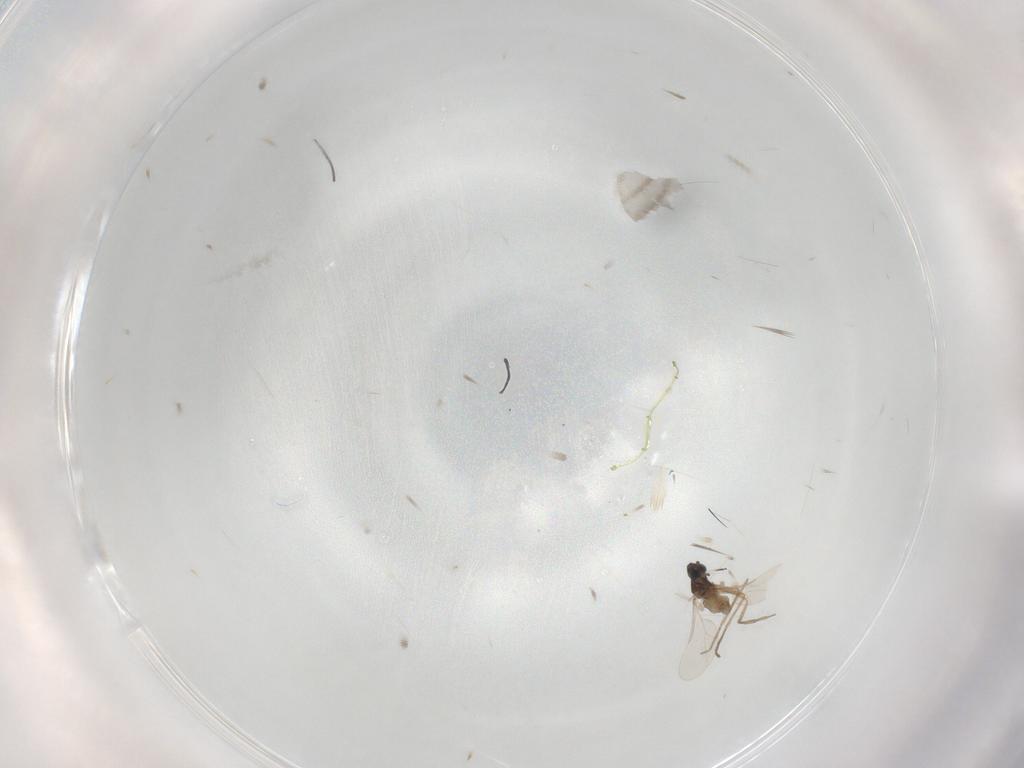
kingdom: Animalia
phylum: Arthropoda
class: Insecta
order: Diptera
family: Cecidomyiidae
